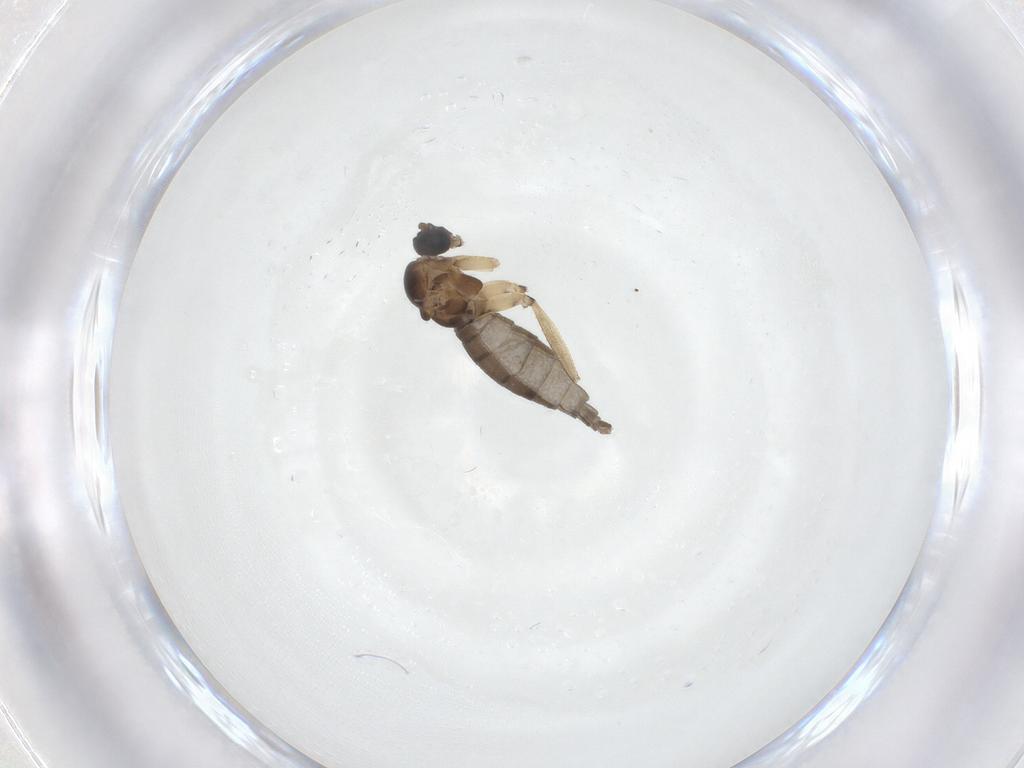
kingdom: Animalia
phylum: Arthropoda
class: Insecta
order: Diptera
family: Sciaridae
